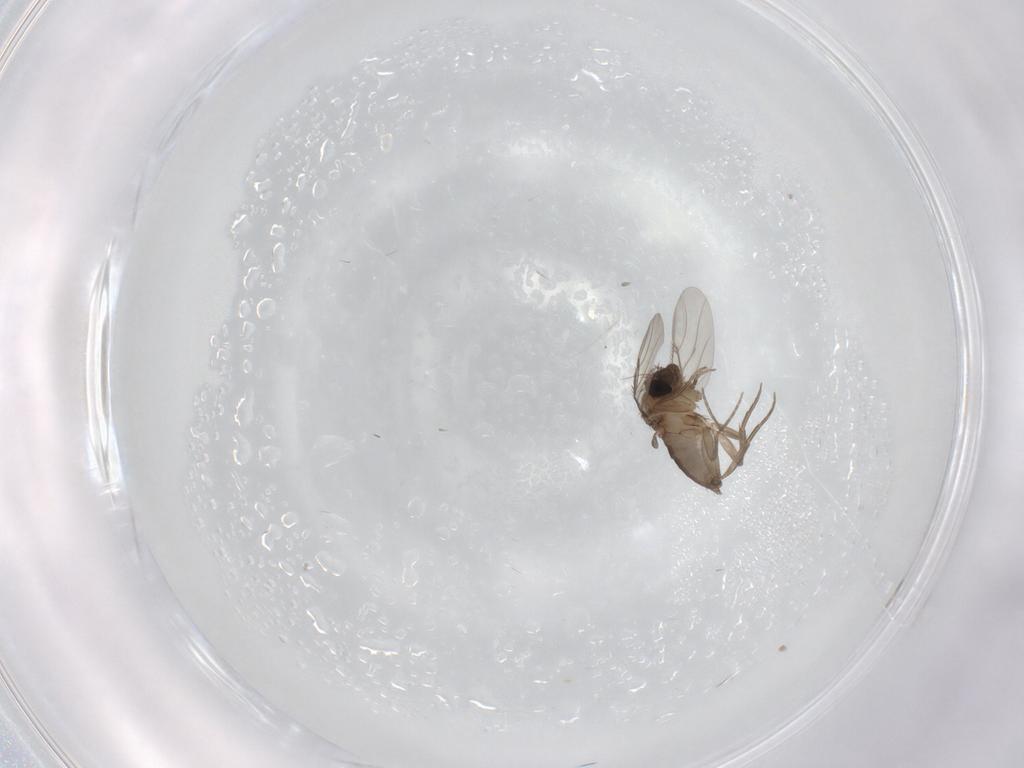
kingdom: Animalia
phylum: Arthropoda
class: Insecta
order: Diptera
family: Phoridae
